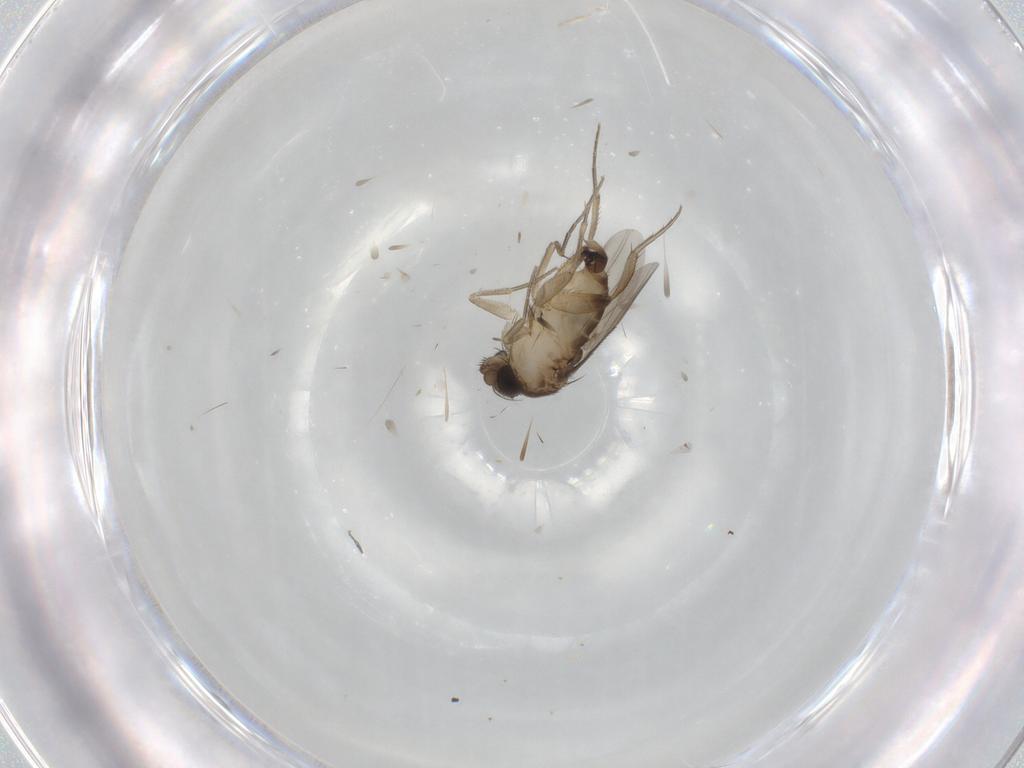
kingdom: Animalia
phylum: Arthropoda
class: Insecta
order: Diptera
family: Phoridae
